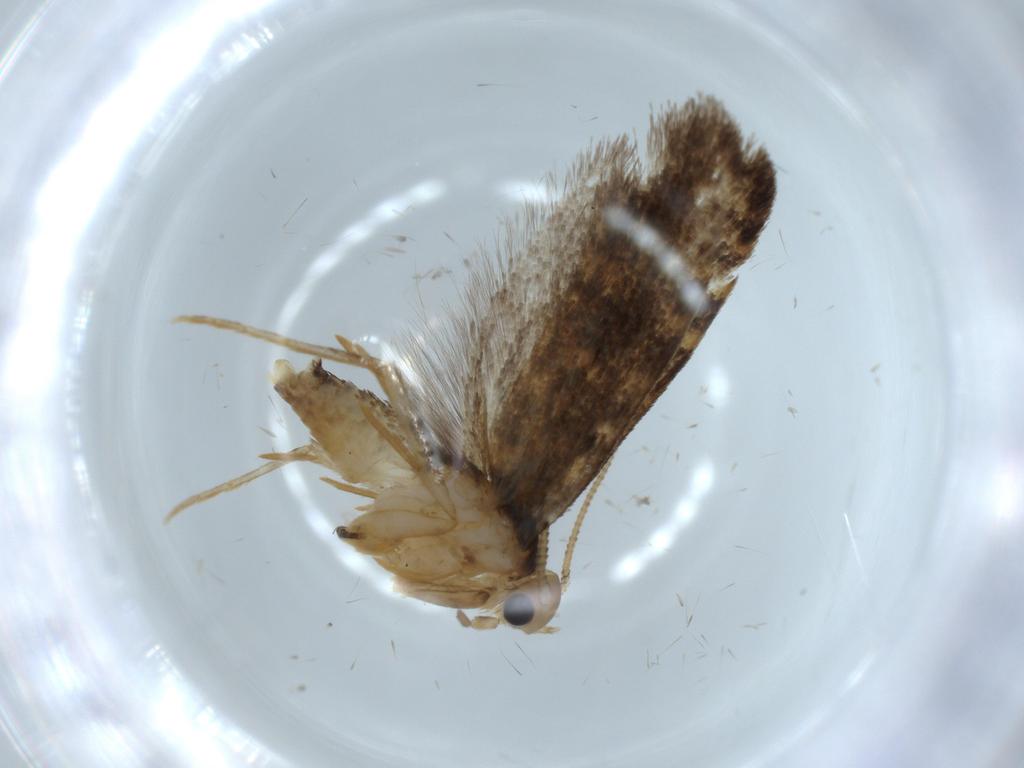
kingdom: Animalia
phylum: Arthropoda
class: Insecta
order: Lepidoptera
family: Tineidae
